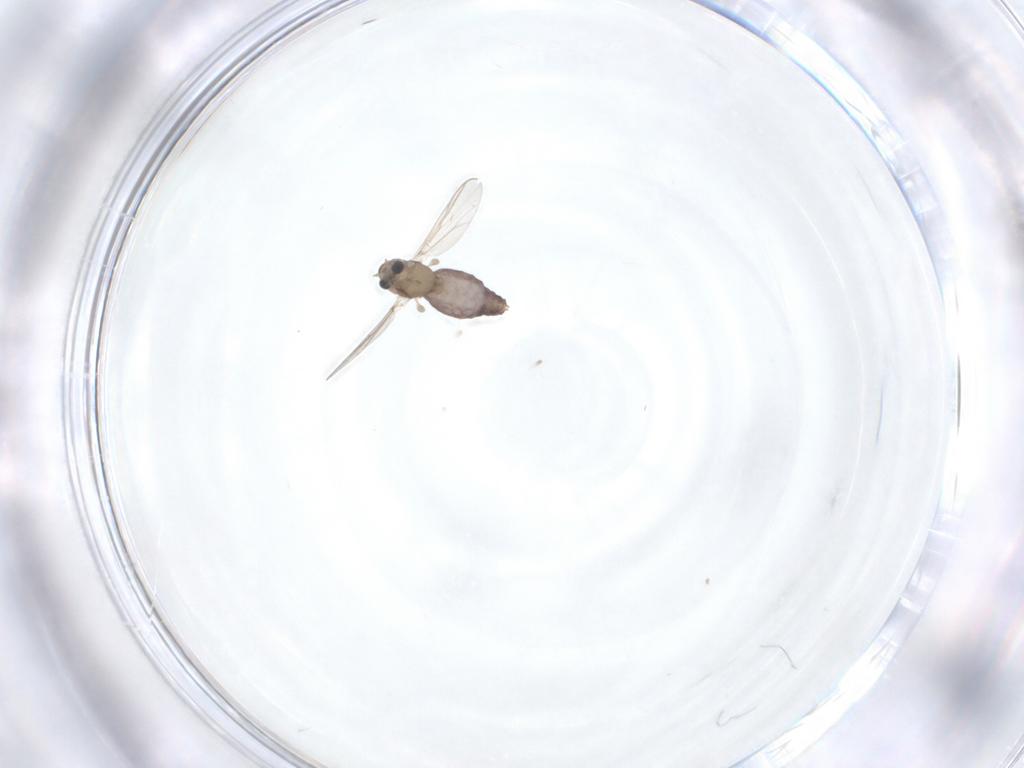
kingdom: Animalia
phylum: Arthropoda
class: Insecta
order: Diptera
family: Chironomidae
